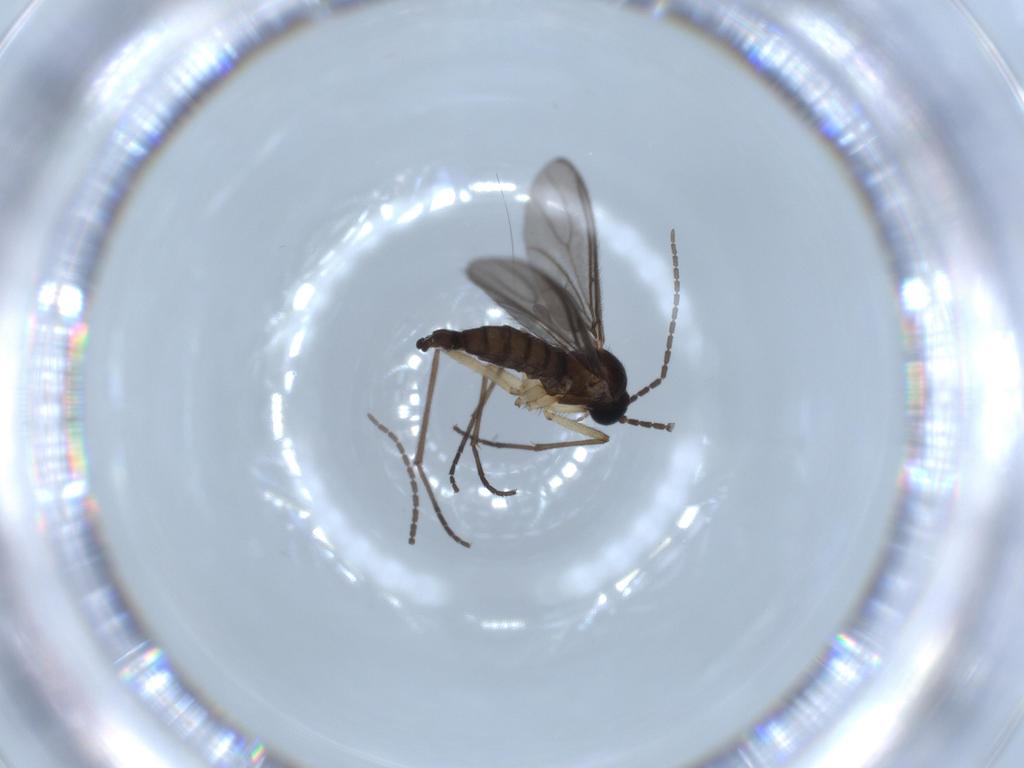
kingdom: Animalia
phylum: Arthropoda
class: Insecta
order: Diptera
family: Sciaridae
